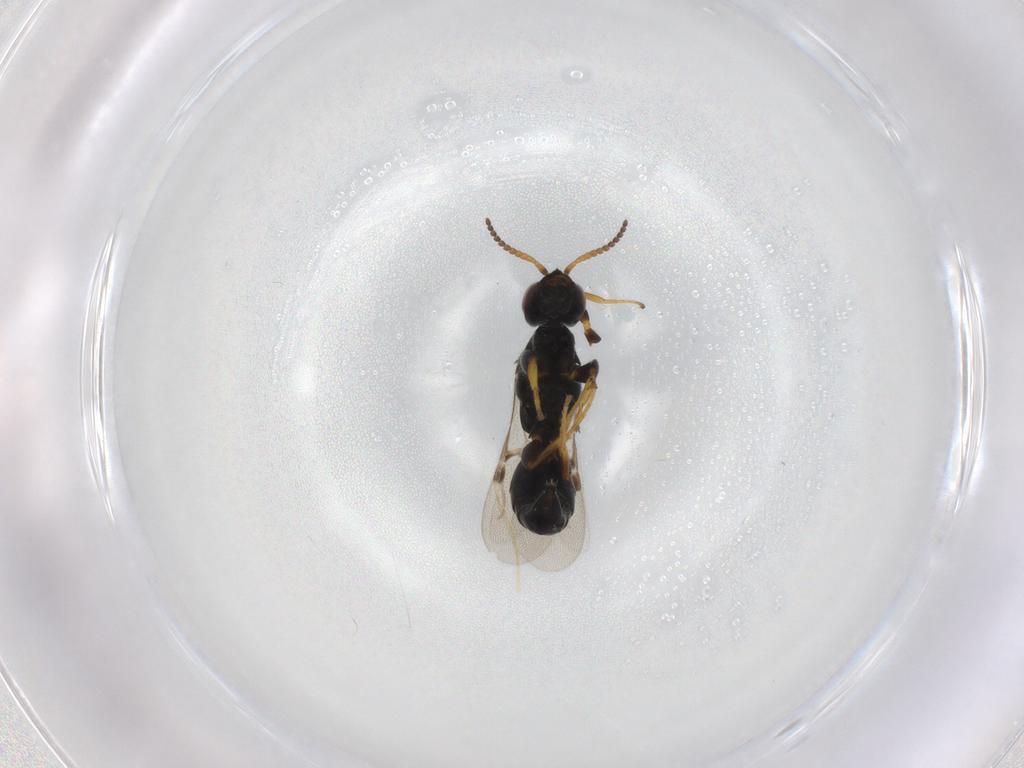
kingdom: Animalia
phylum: Arthropoda
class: Insecta
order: Hymenoptera
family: Bethylidae
